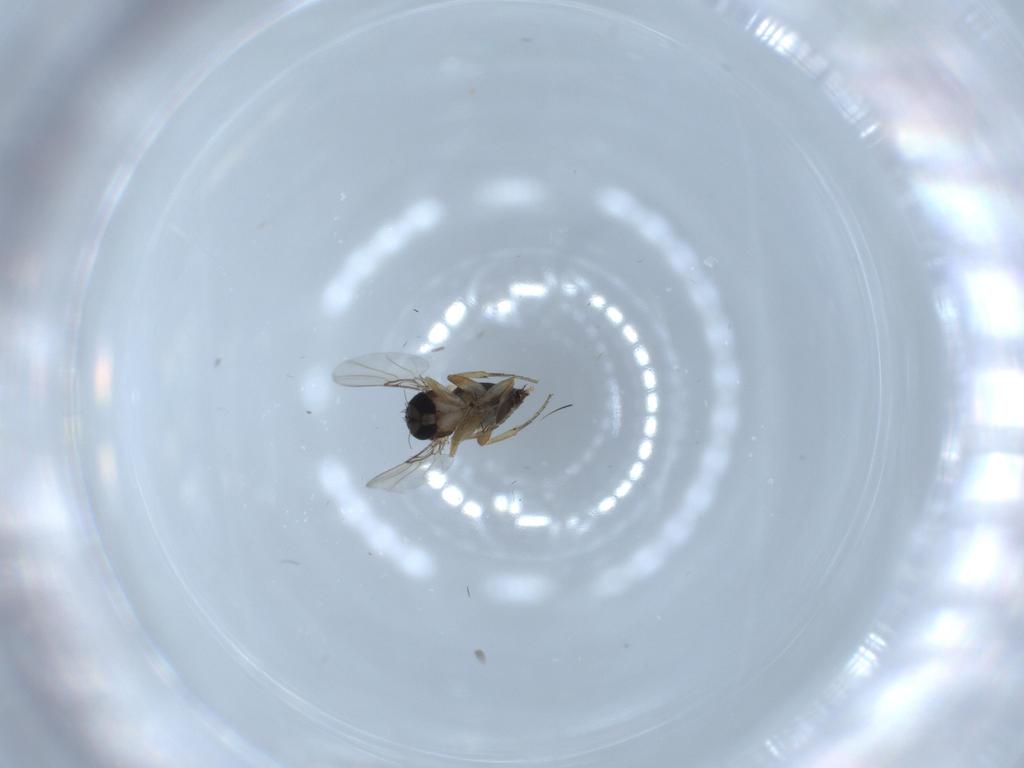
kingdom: Animalia
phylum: Arthropoda
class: Insecta
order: Diptera
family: Phoridae
